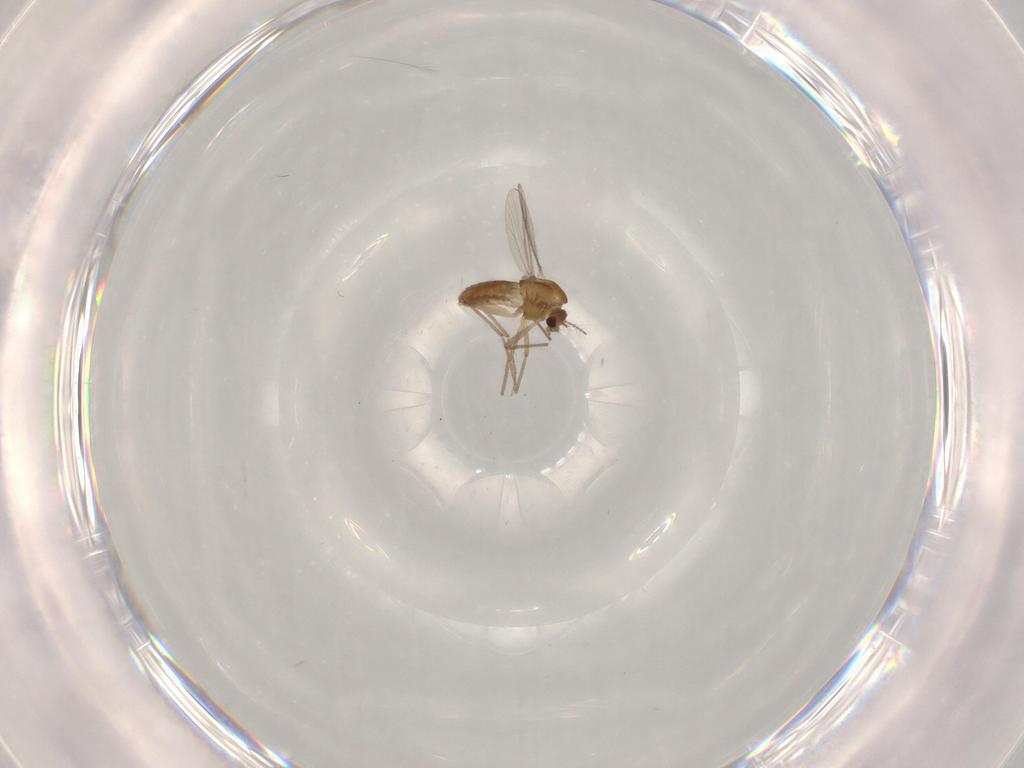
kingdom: Animalia
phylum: Arthropoda
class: Insecta
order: Diptera
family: Chironomidae
